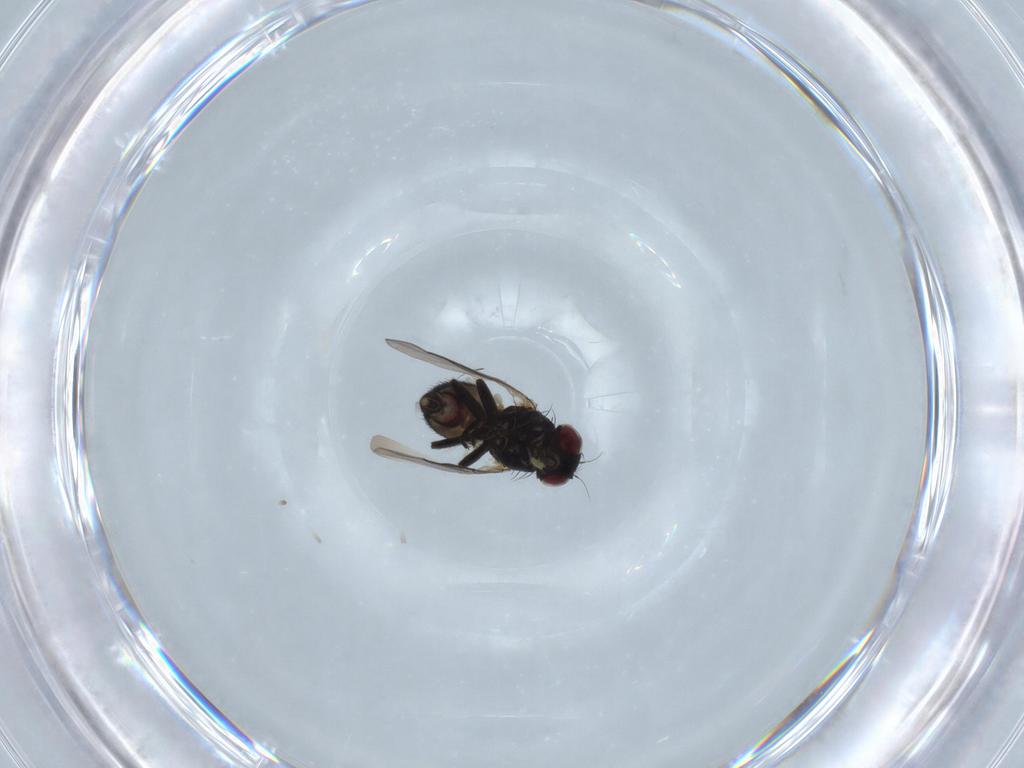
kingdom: Animalia
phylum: Arthropoda
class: Insecta
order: Diptera
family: Agromyzidae
